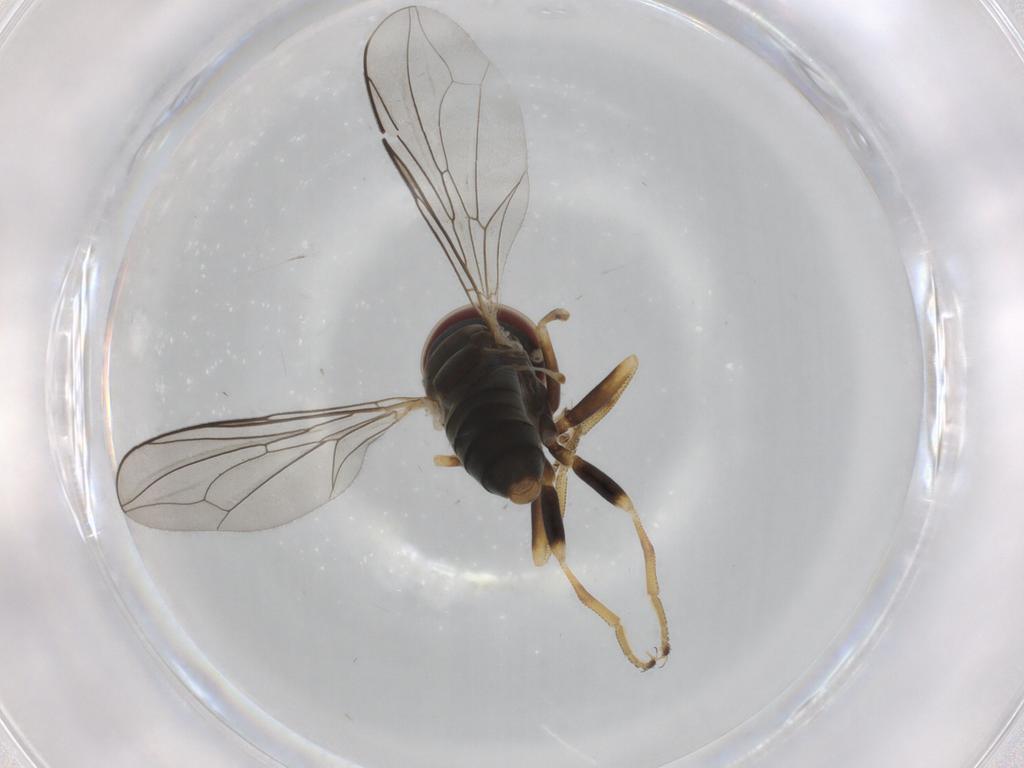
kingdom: Animalia
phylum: Arthropoda
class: Insecta
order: Diptera
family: Pipunculidae
